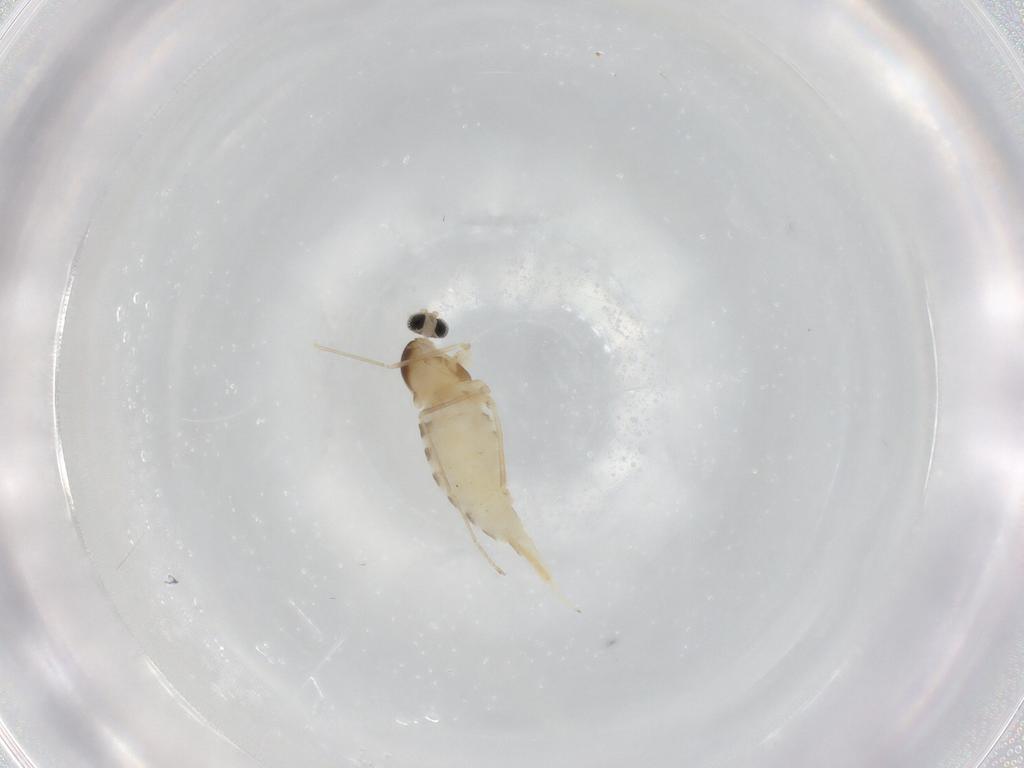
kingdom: Animalia
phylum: Arthropoda
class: Insecta
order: Diptera
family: Cecidomyiidae
